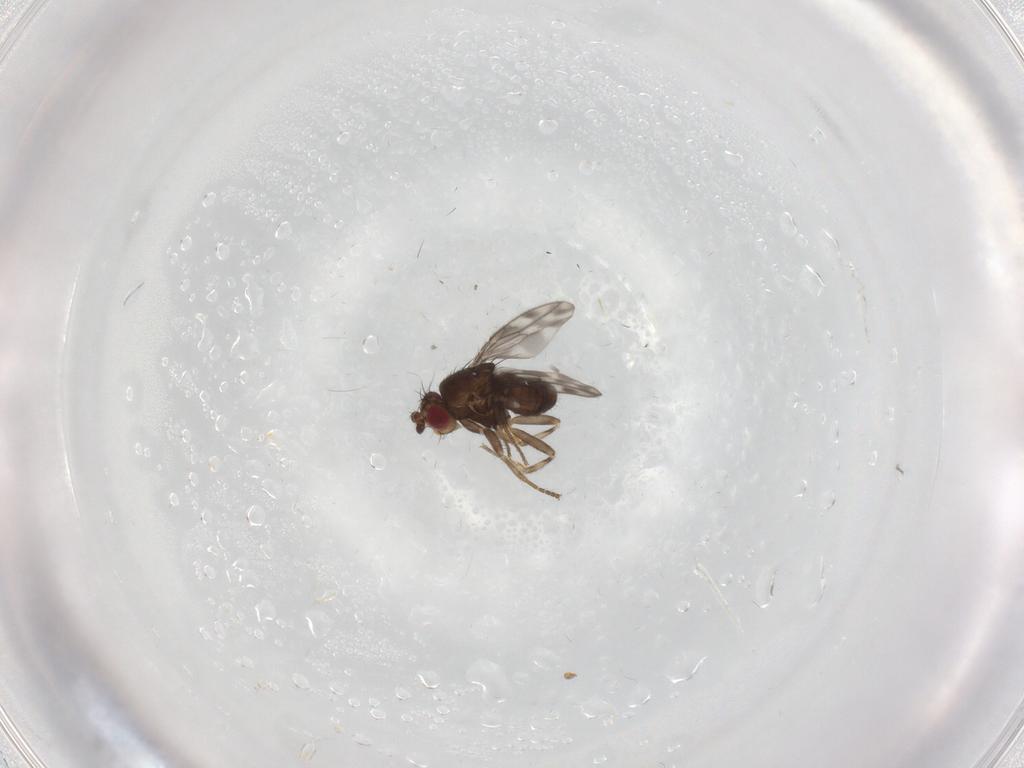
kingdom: Animalia
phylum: Arthropoda
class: Insecta
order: Diptera
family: Sphaeroceridae
